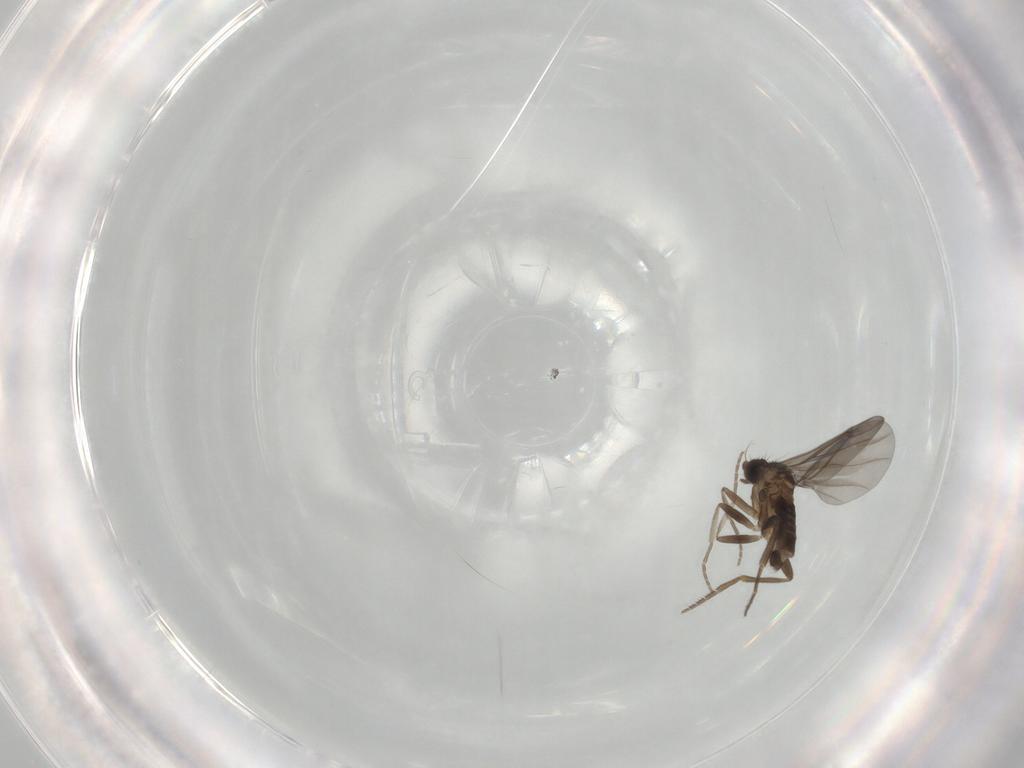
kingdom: Animalia
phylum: Arthropoda
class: Insecta
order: Diptera
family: Phoridae
